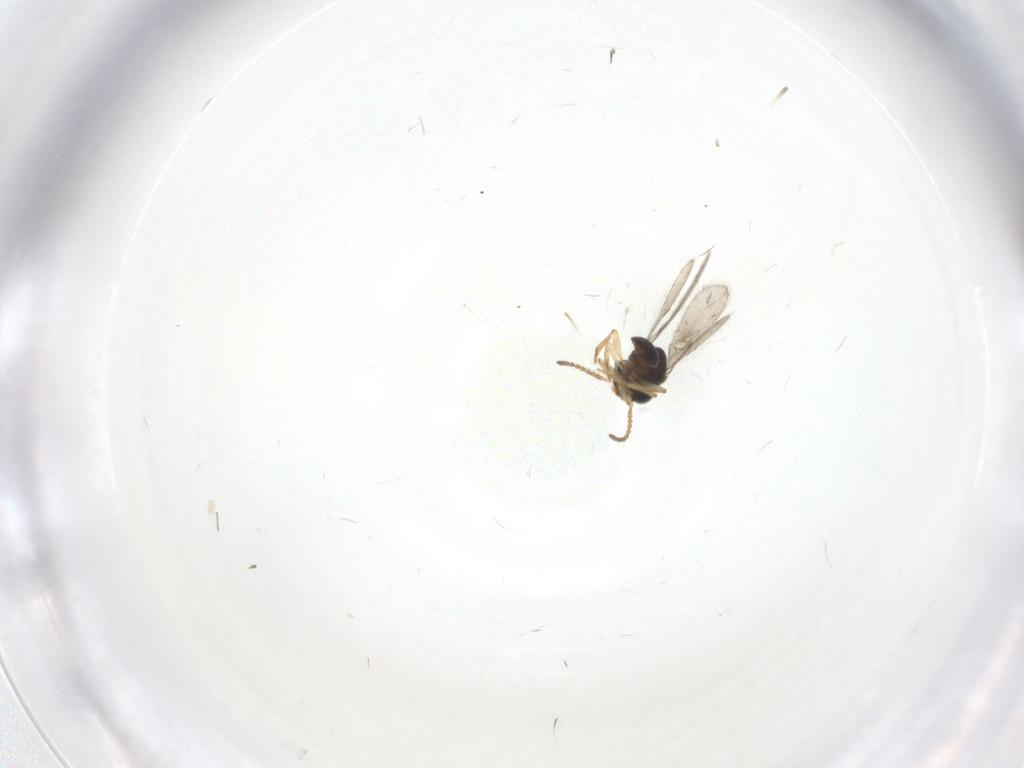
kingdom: Animalia
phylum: Arthropoda
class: Insecta
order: Hymenoptera
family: Scelionidae
